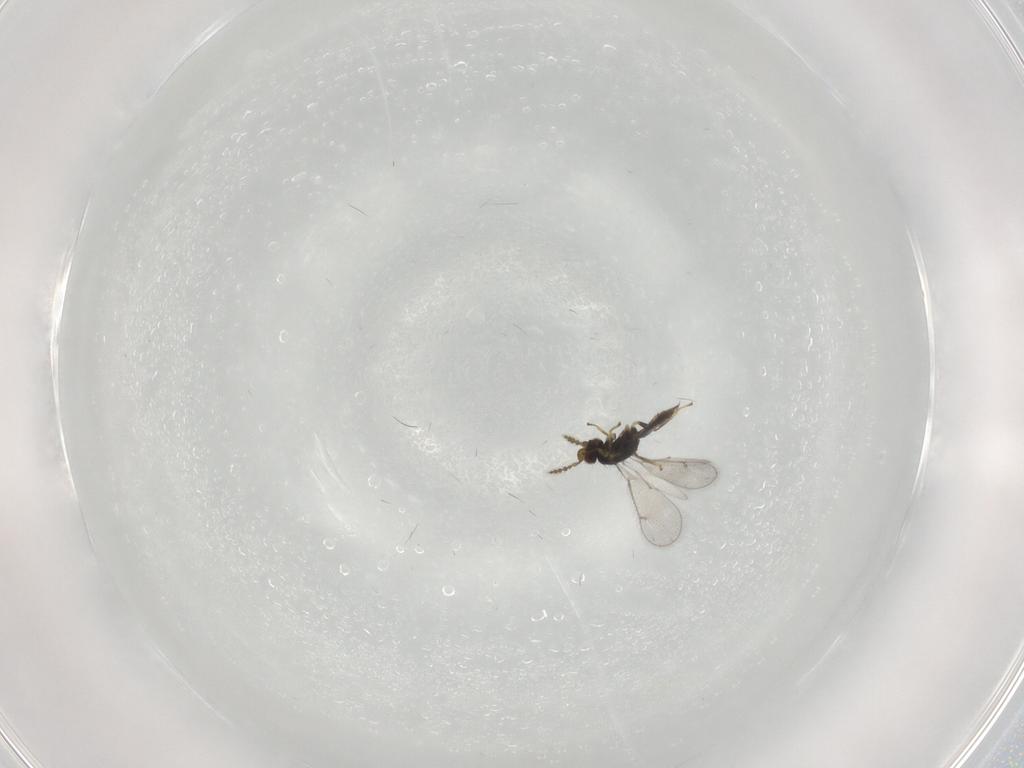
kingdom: Animalia
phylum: Arthropoda
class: Insecta
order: Hymenoptera
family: Eulophidae
